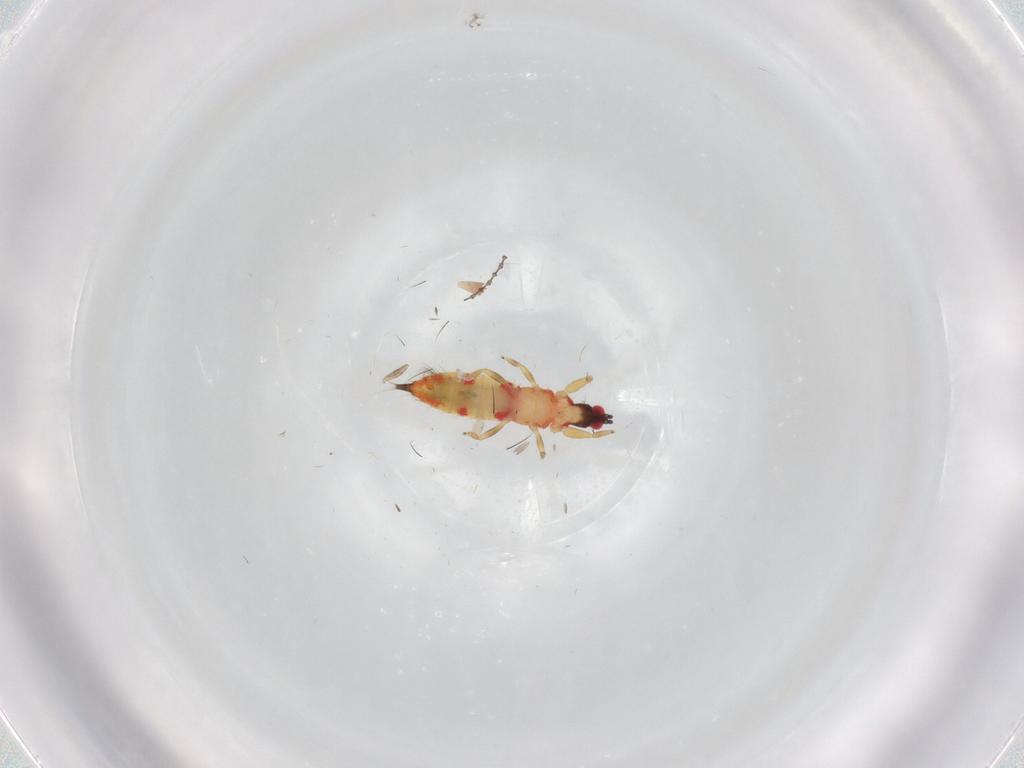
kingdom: Animalia
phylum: Arthropoda
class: Insecta
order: Thysanoptera
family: Phlaeothripidae
